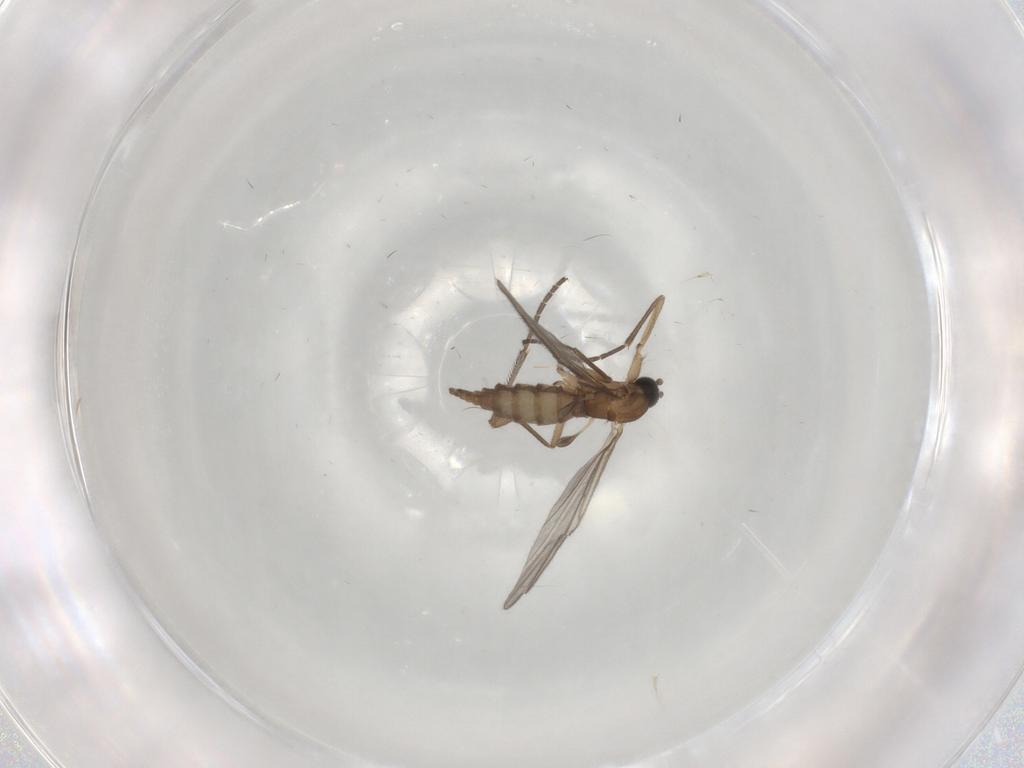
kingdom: Animalia
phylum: Arthropoda
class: Insecta
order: Diptera
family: Sciaridae
